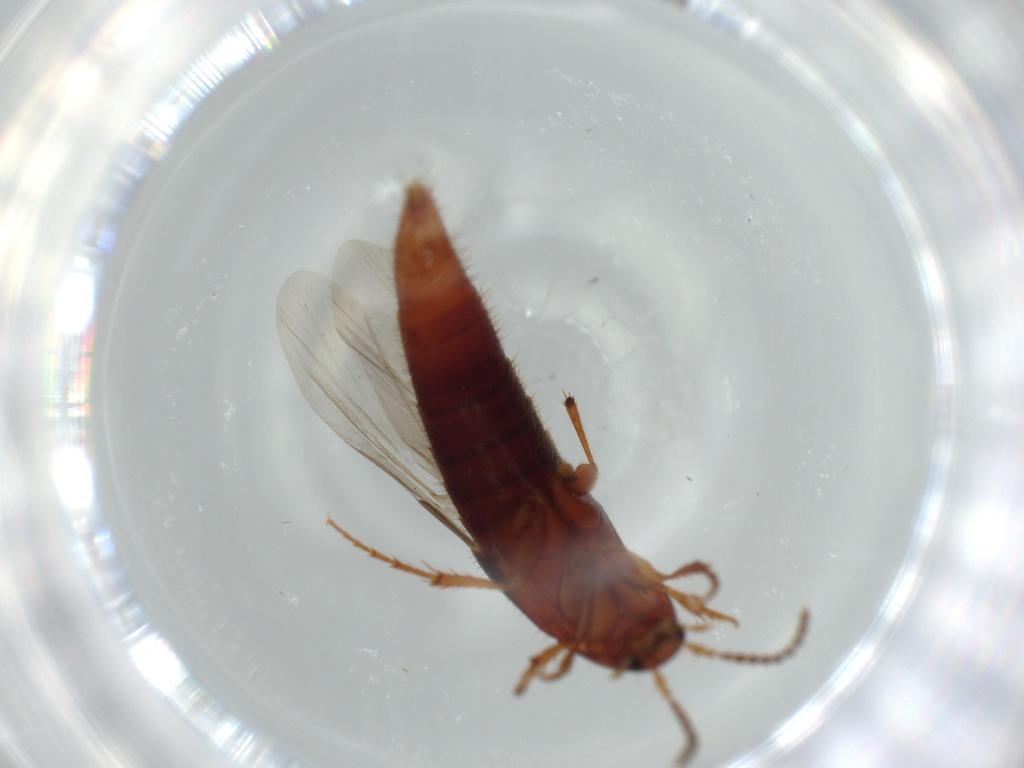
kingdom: Animalia
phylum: Arthropoda
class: Insecta
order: Coleoptera
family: Staphylinidae
